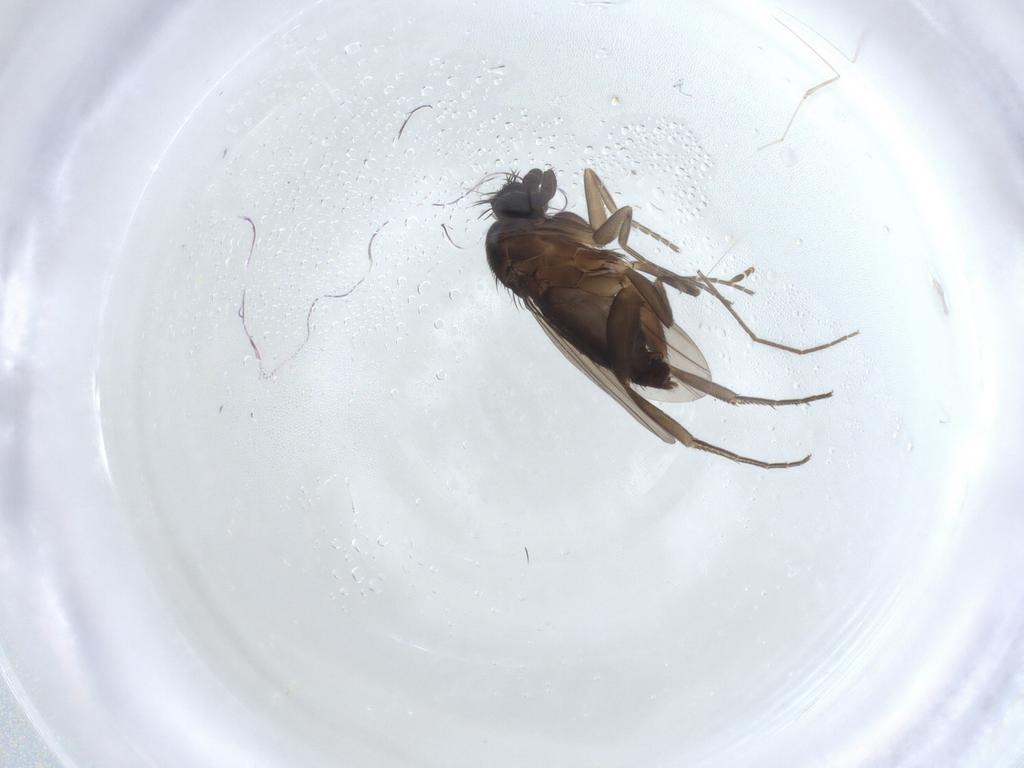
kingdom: Animalia
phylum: Arthropoda
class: Insecta
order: Diptera
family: Phoridae
